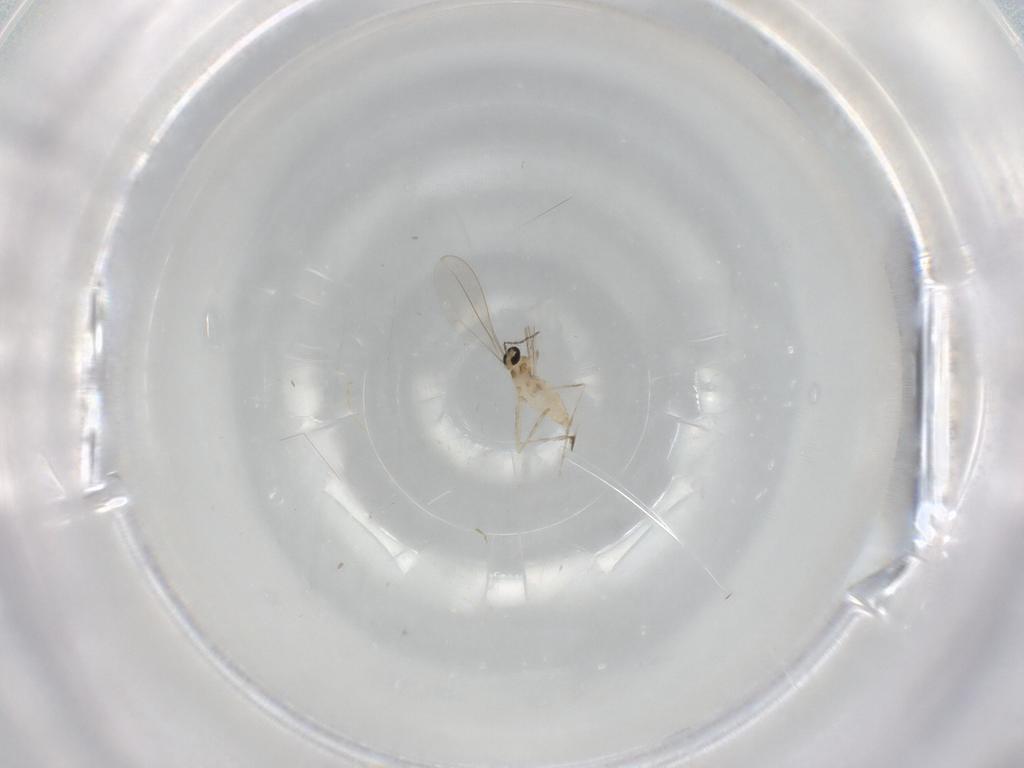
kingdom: Animalia
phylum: Arthropoda
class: Insecta
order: Diptera
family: Cecidomyiidae
